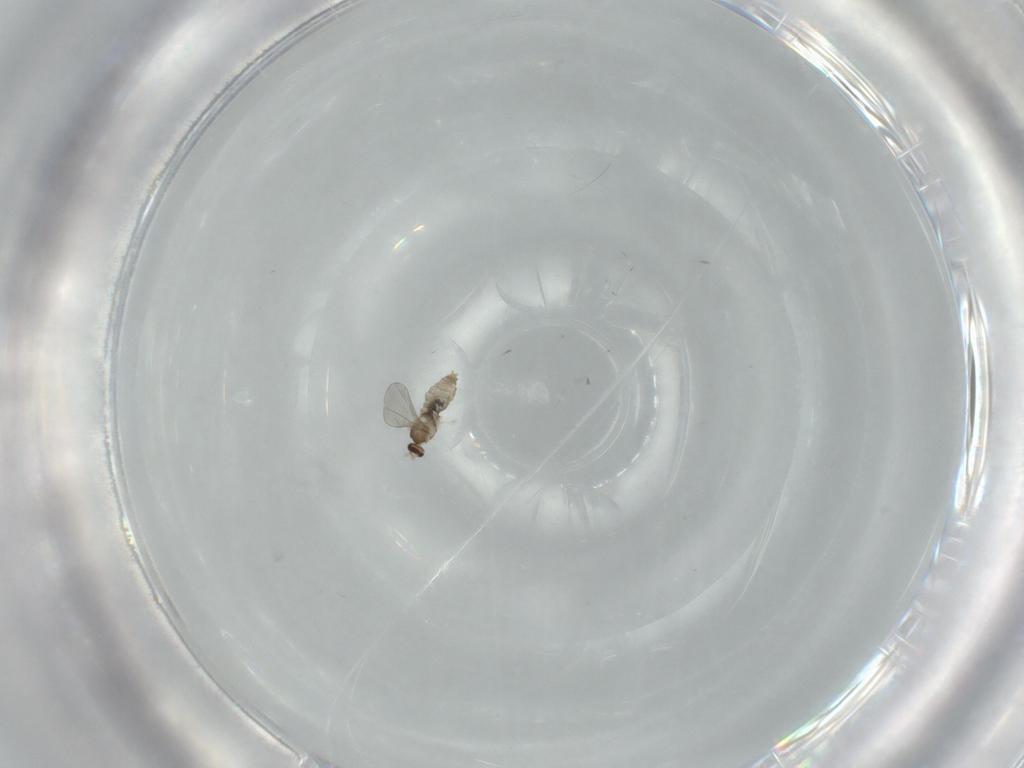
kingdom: Animalia
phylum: Arthropoda
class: Insecta
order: Diptera
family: Cecidomyiidae
